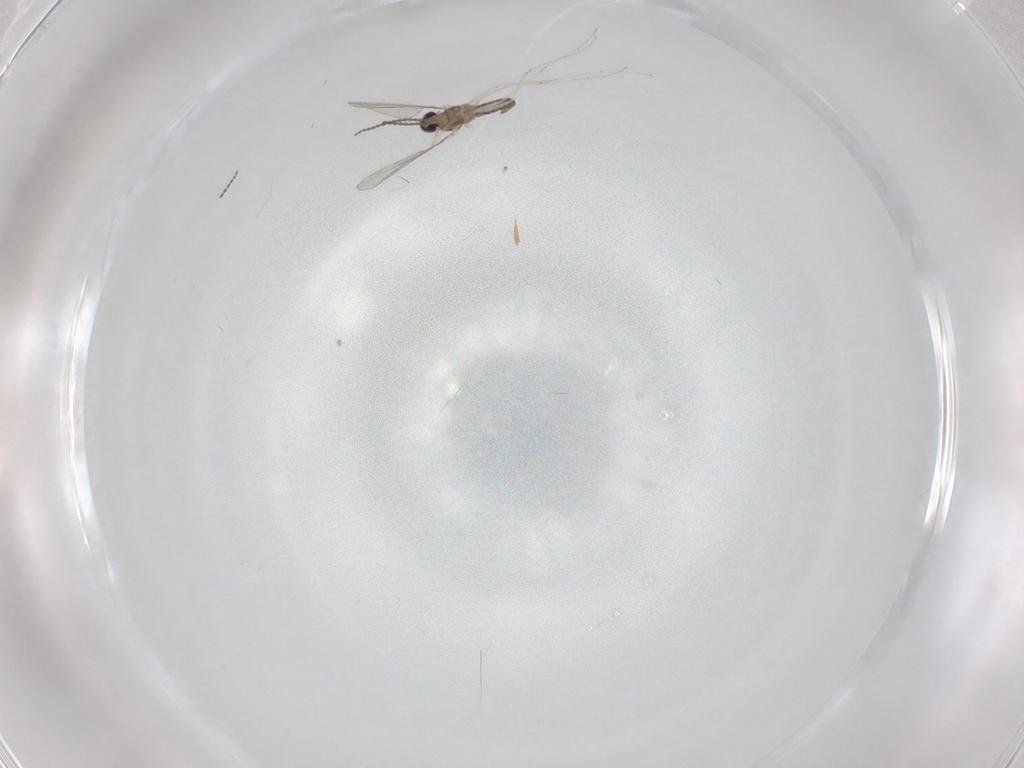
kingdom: Animalia
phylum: Arthropoda
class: Insecta
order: Diptera
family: Cecidomyiidae
